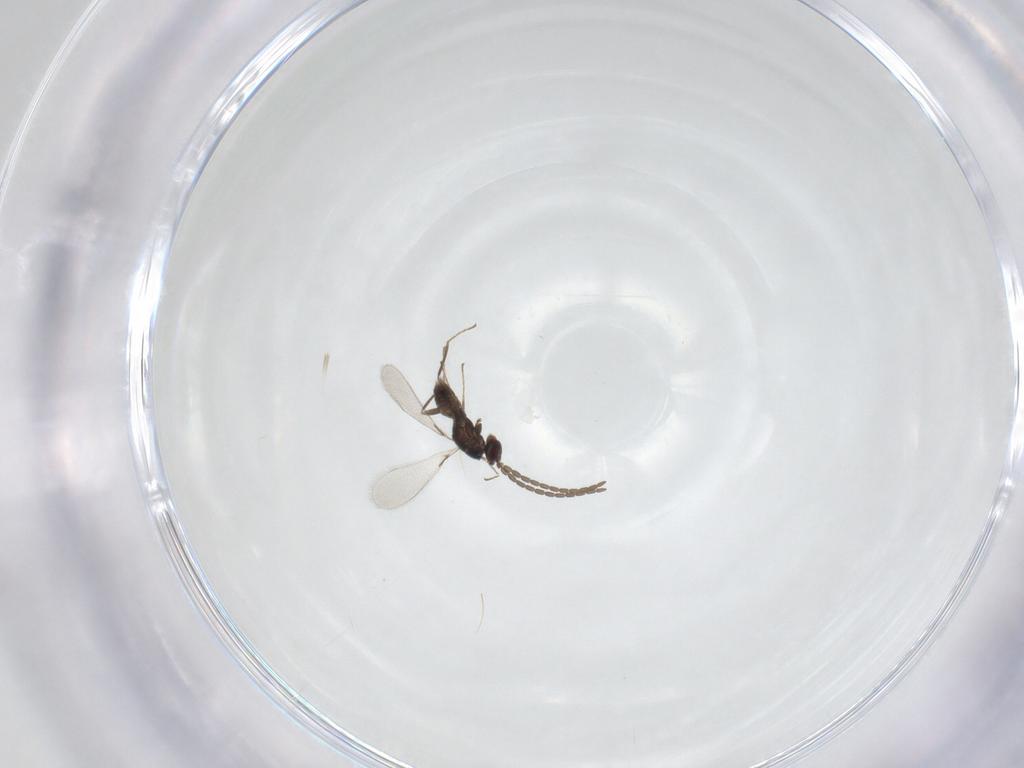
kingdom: Animalia
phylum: Arthropoda
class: Insecta
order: Hymenoptera
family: Mymaridae
